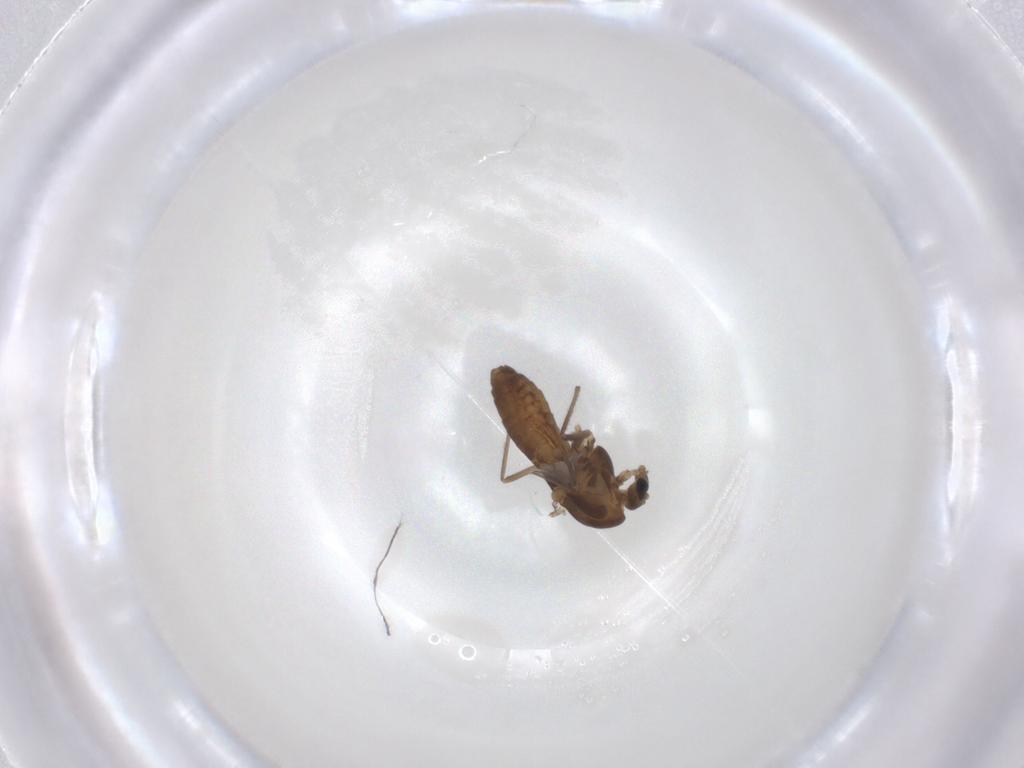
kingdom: Animalia
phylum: Arthropoda
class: Insecta
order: Diptera
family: Chironomidae
